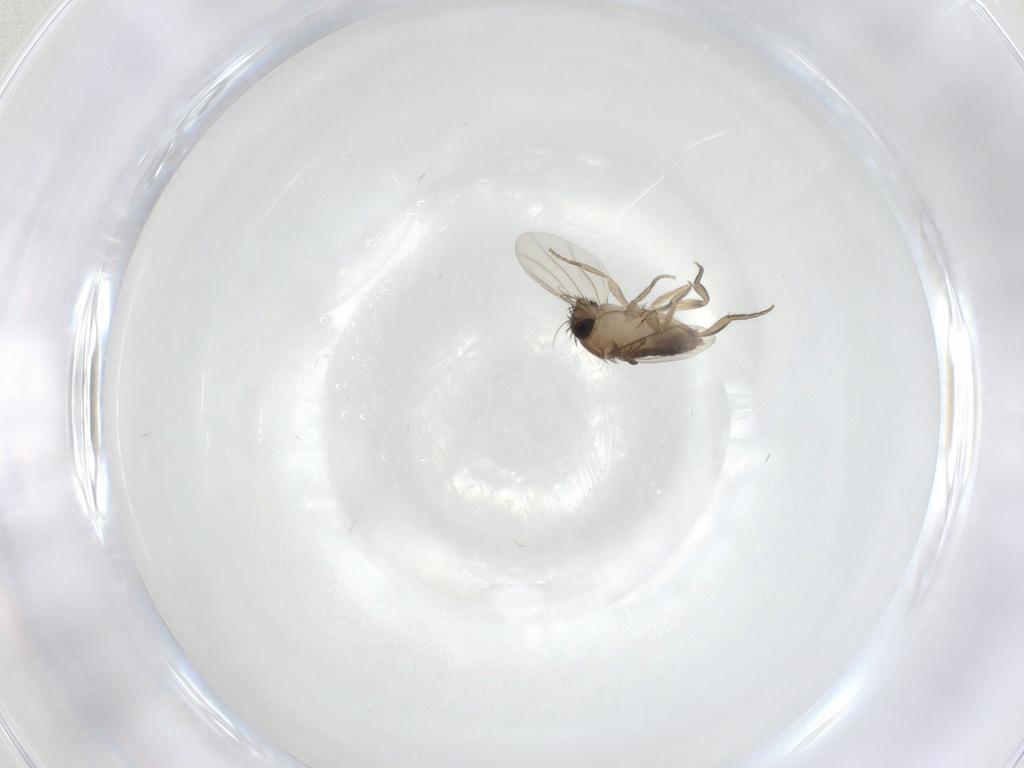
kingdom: Animalia
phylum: Arthropoda
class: Insecta
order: Diptera
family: Phoridae
